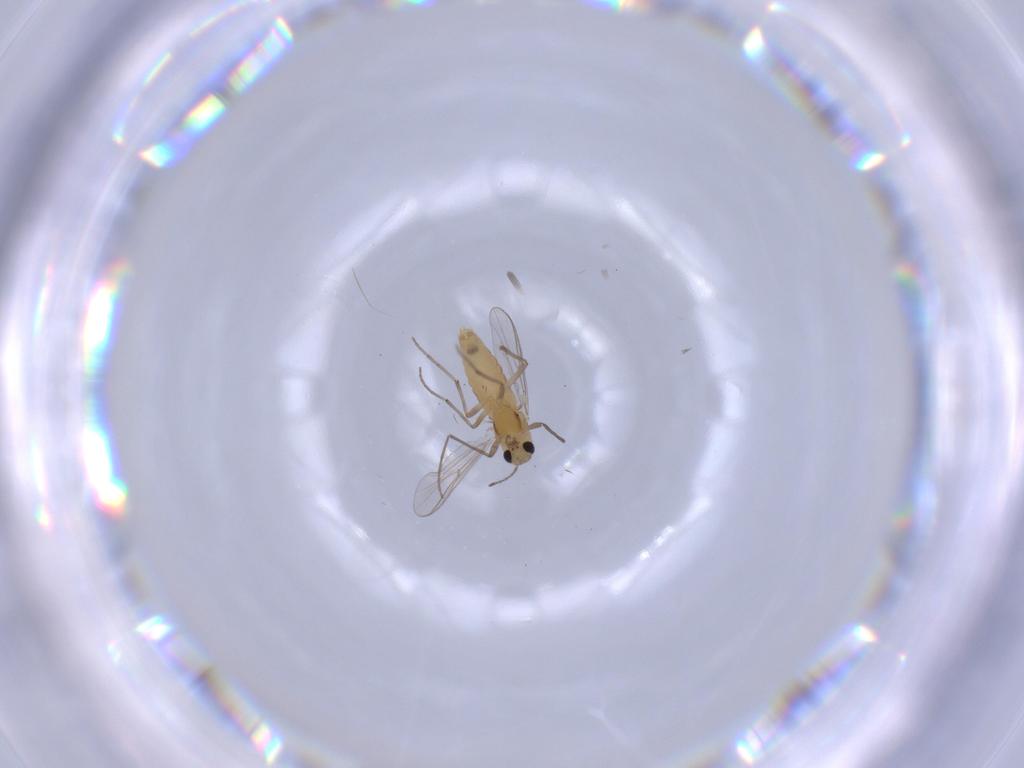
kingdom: Animalia
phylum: Arthropoda
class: Insecta
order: Diptera
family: Chironomidae
